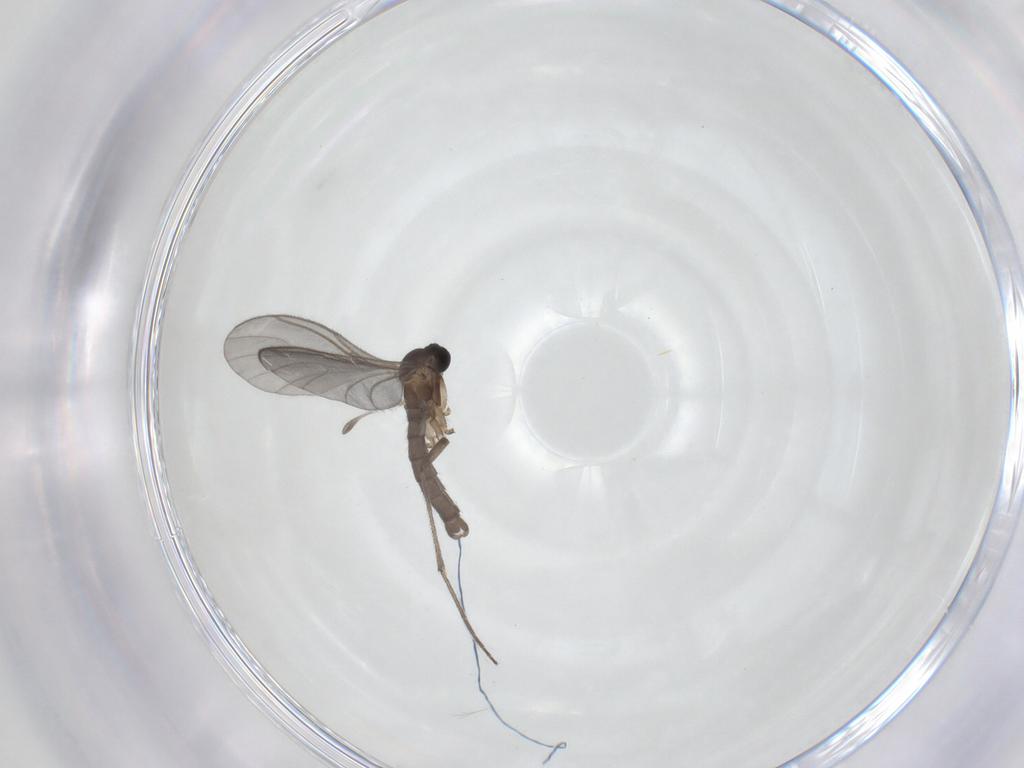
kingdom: Animalia
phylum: Arthropoda
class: Insecta
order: Diptera
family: Sciaridae
